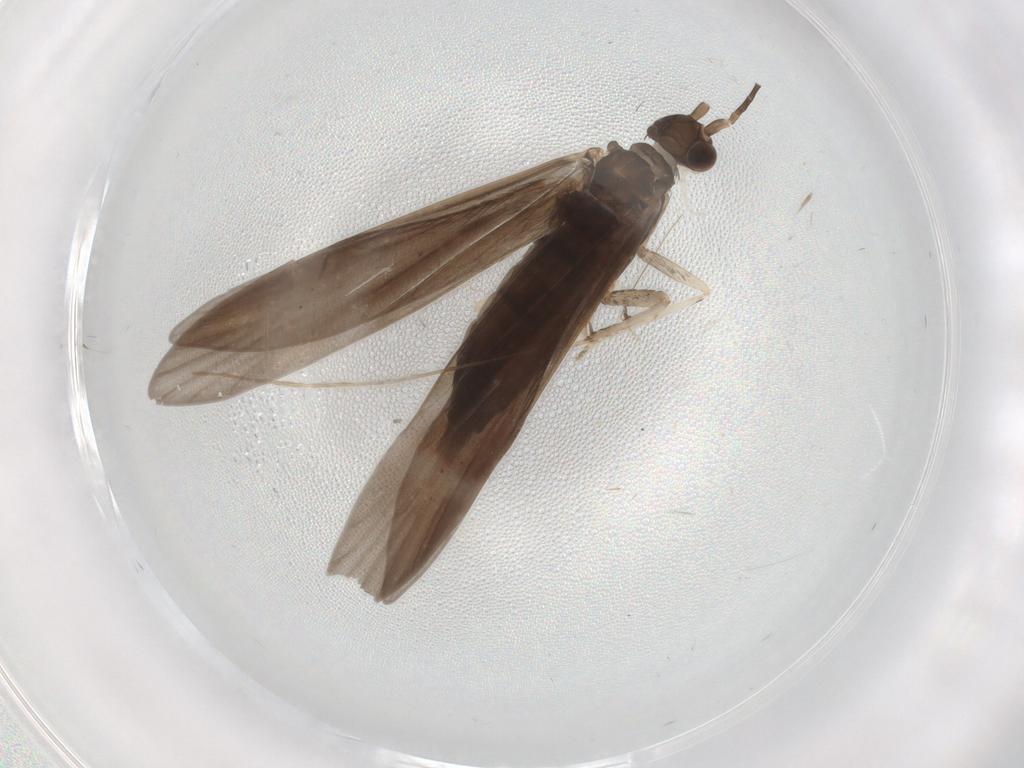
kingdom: Animalia
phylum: Arthropoda
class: Insecta
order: Trichoptera
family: Xiphocentronidae
